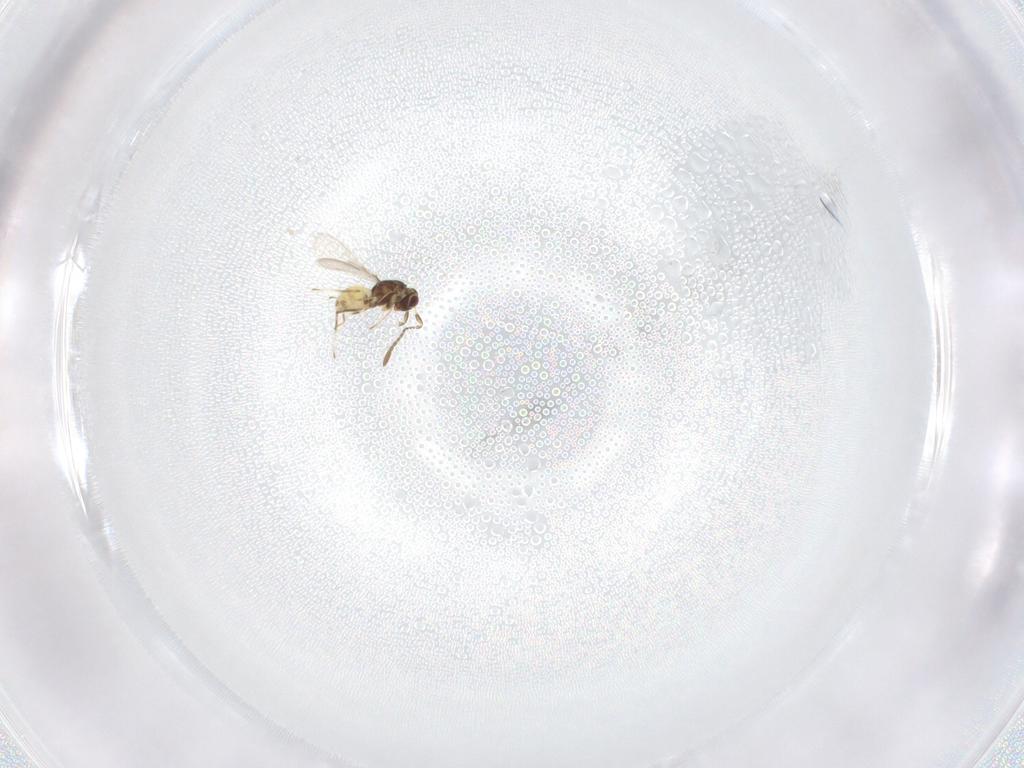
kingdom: Animalia
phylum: Arthropoda
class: Insecta
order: Hymenoptera
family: Mymaridae
